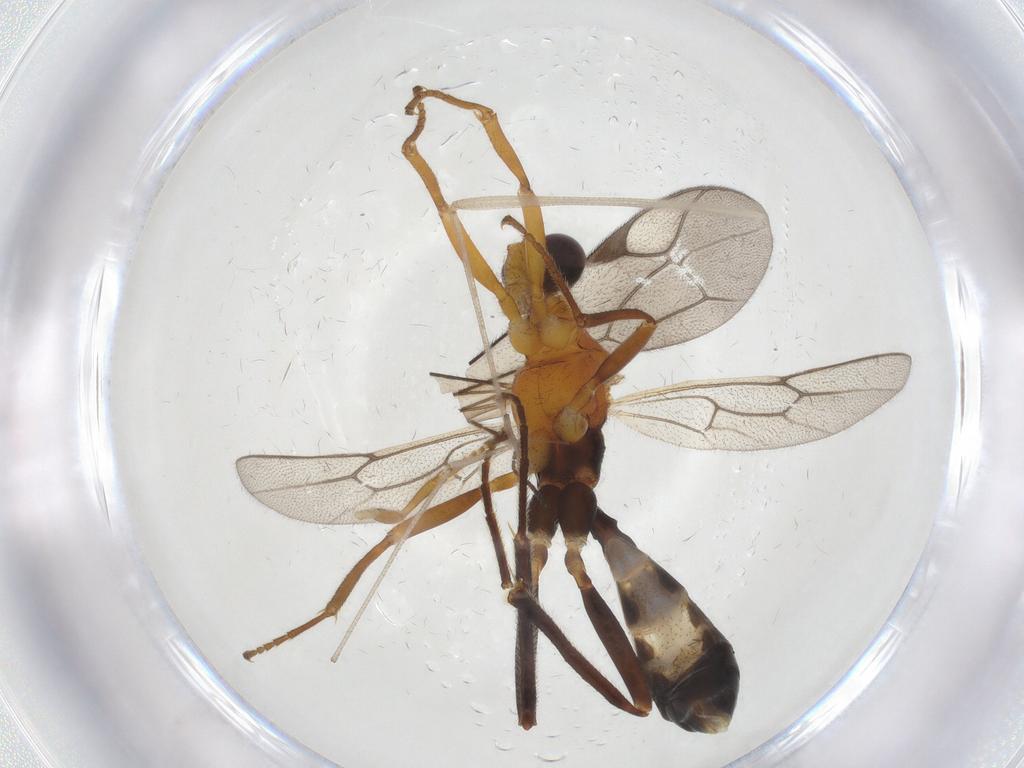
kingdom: Animalia
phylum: Arthropoda
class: Insecta
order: Hymenoptera
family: Ichneumonidae
